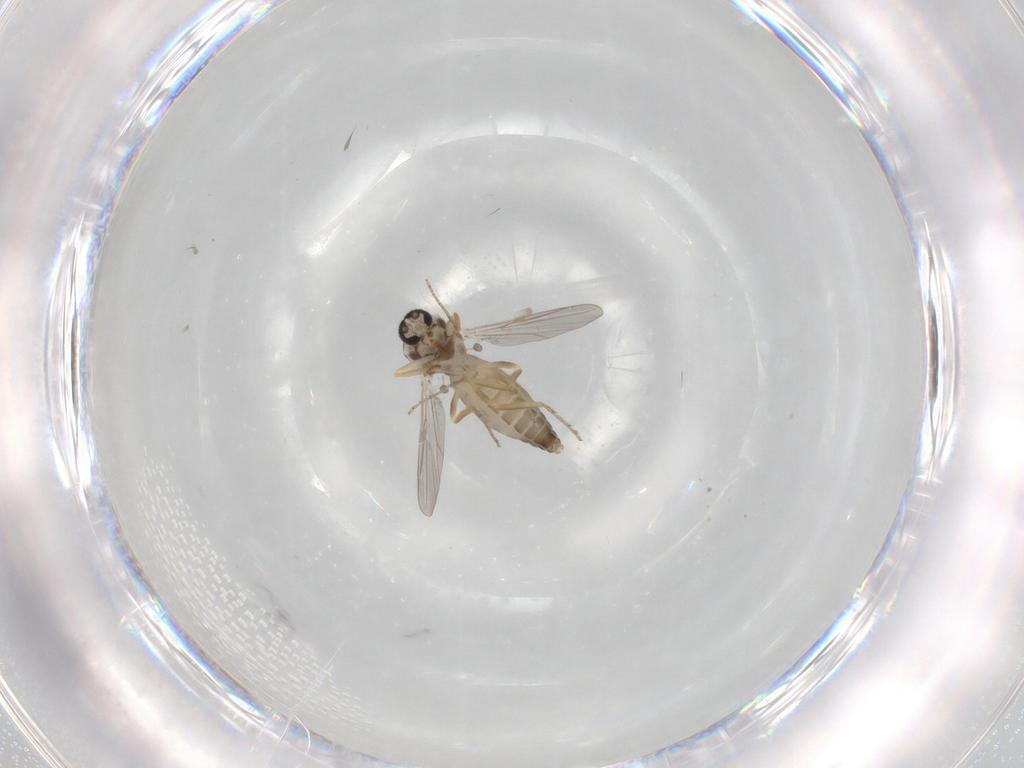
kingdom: Animalia
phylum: Arthropoda
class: Insecta
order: Diptera
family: Ceratopogonidae
